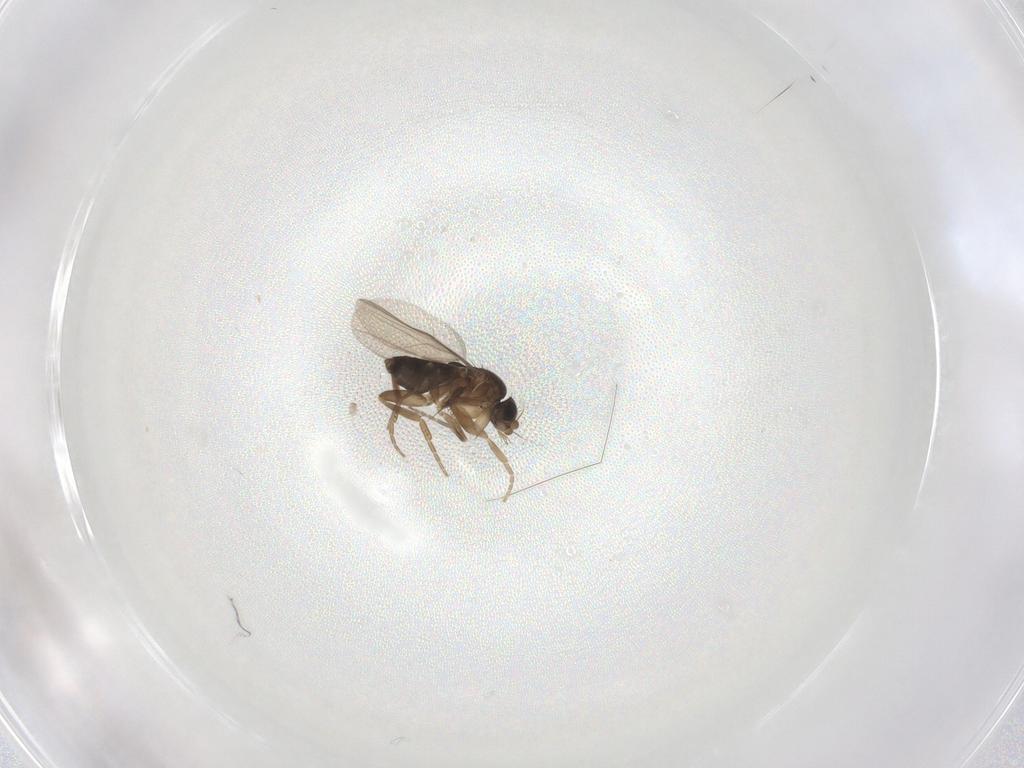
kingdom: Animalia
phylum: Arthropoda
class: Insecta
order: Diptera
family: Phoridae
